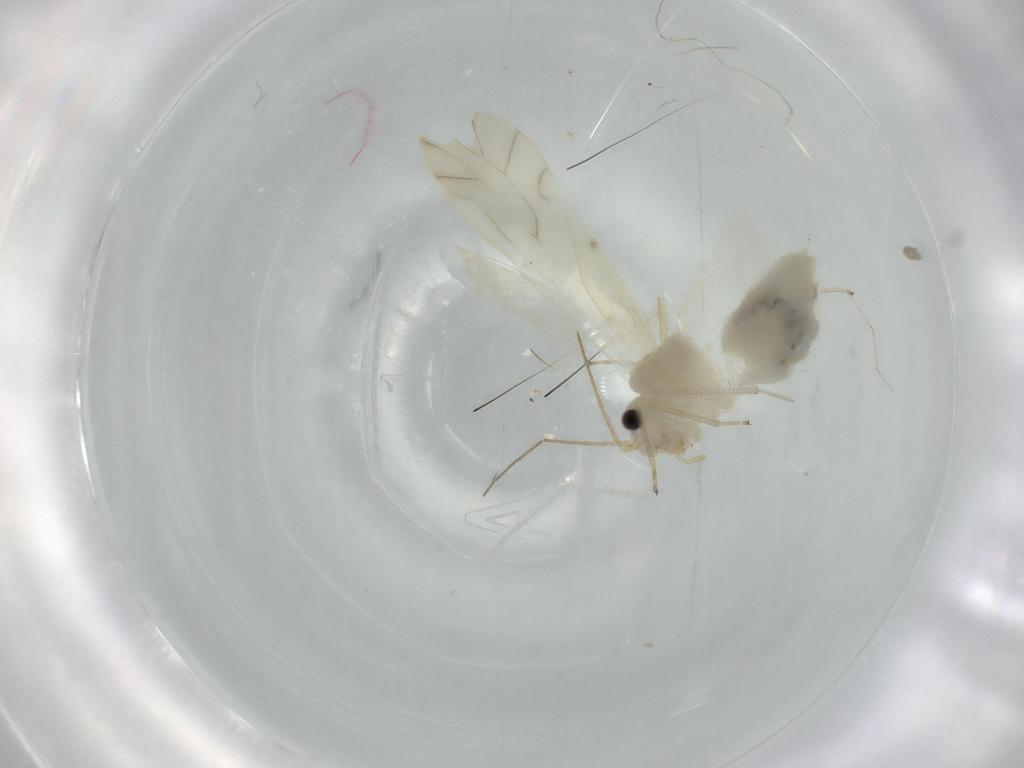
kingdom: Animalia
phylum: Arthropoda
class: Insecta
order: Psocodea
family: Caeciliusidae
